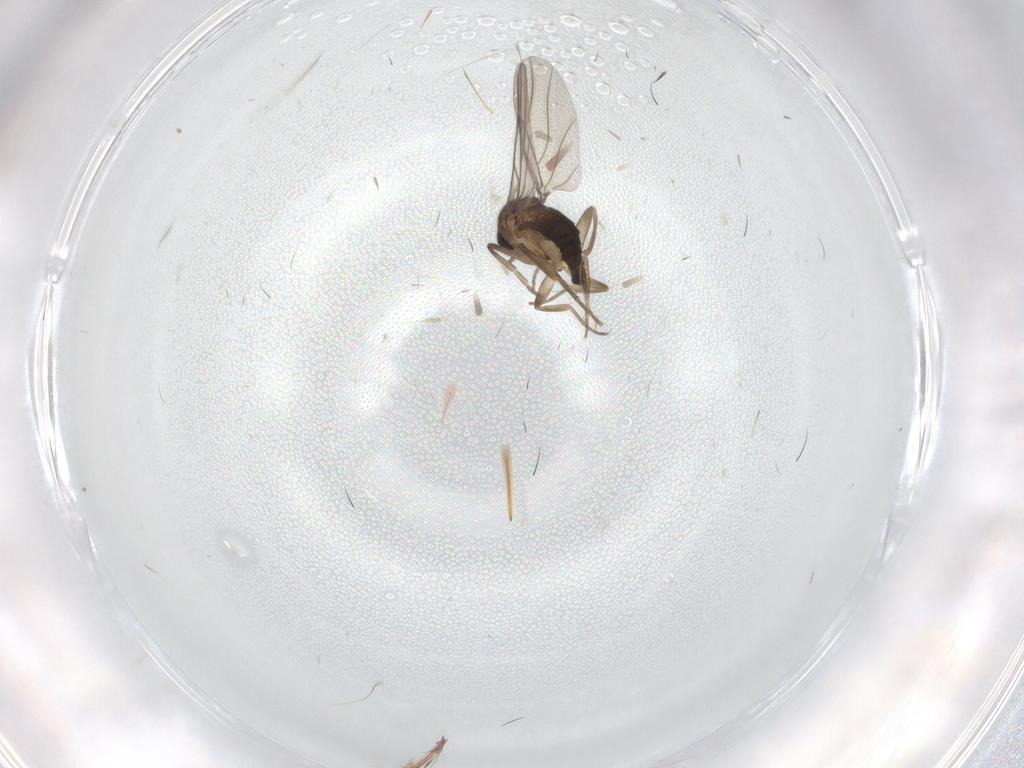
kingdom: Animalia
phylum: Arthropoda
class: Insecta
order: Diptera
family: Phoridae
